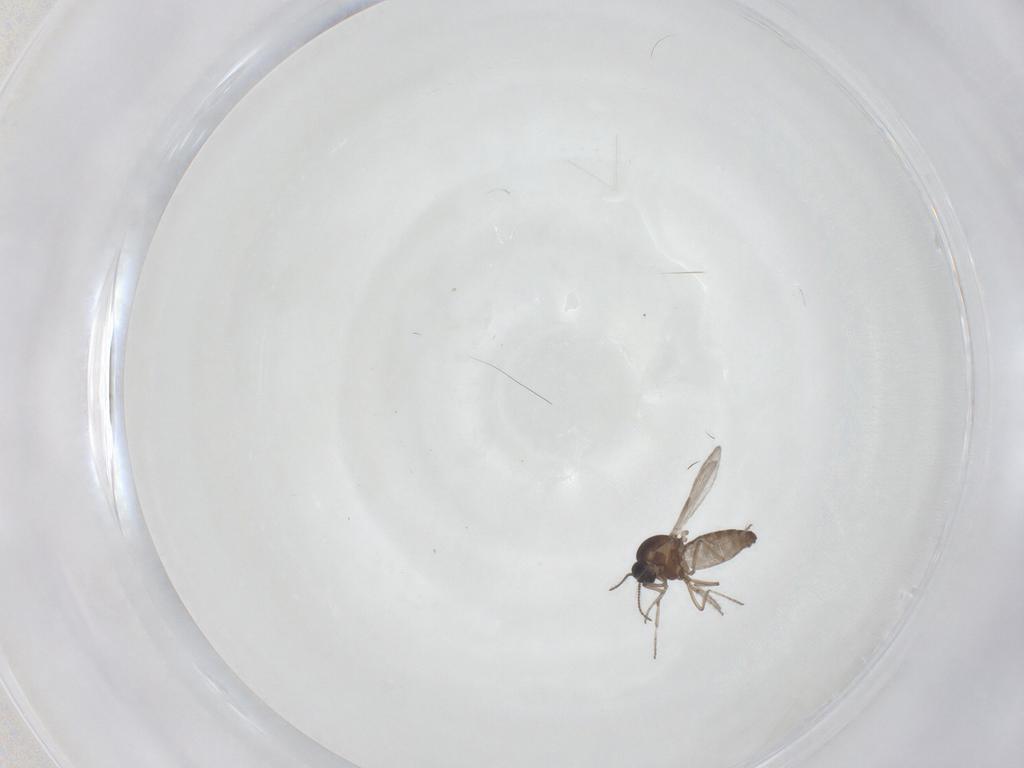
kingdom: Animalia
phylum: Arthropoda
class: Insecta
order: Diptera
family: Ceratopogonidae
